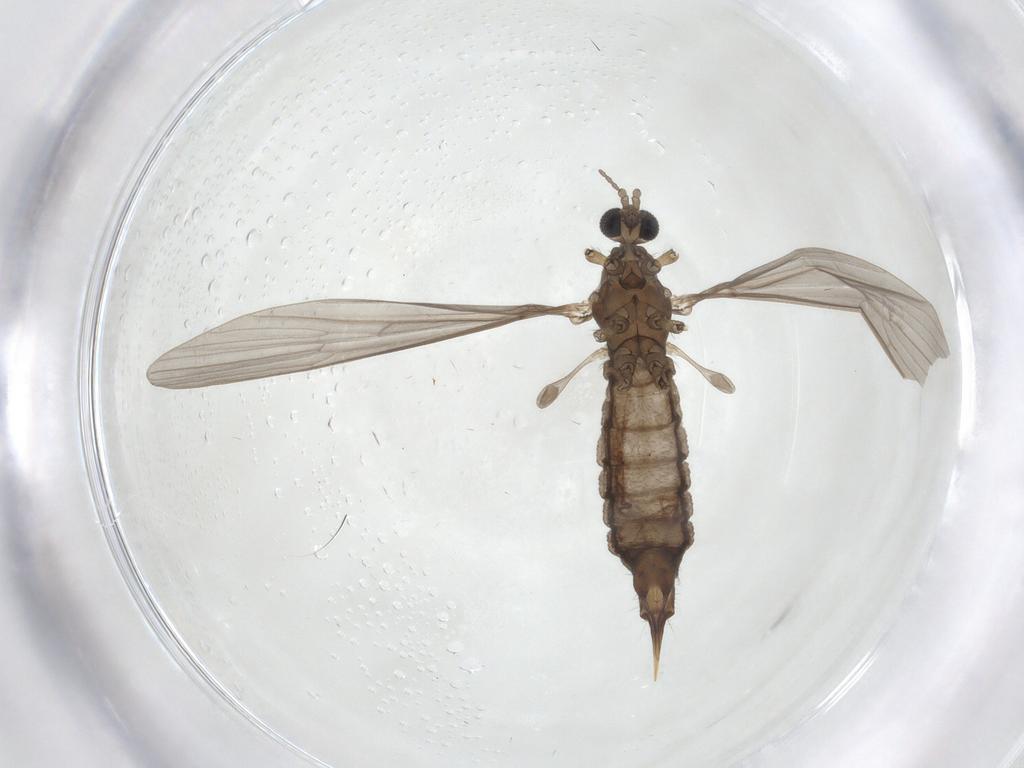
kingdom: Animalia
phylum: Arthropoda
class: Insecta
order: Diptera
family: Limoniidae
